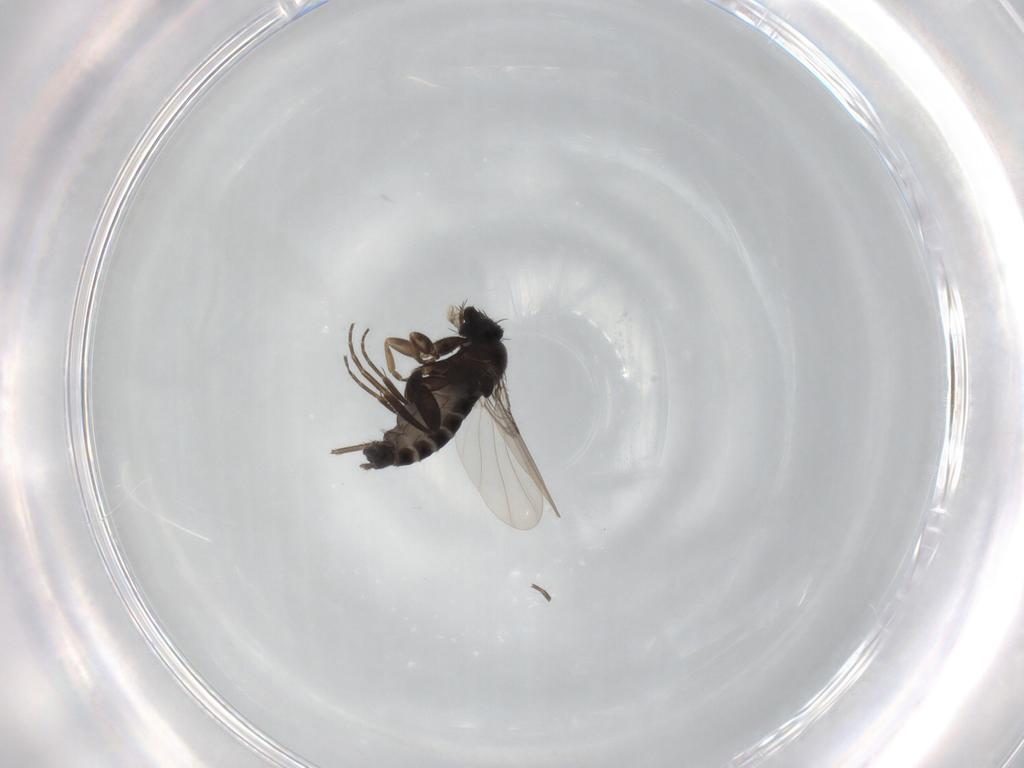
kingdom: Animalia
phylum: Arthropoda
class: Insecta
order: Diptera
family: Phoridae
